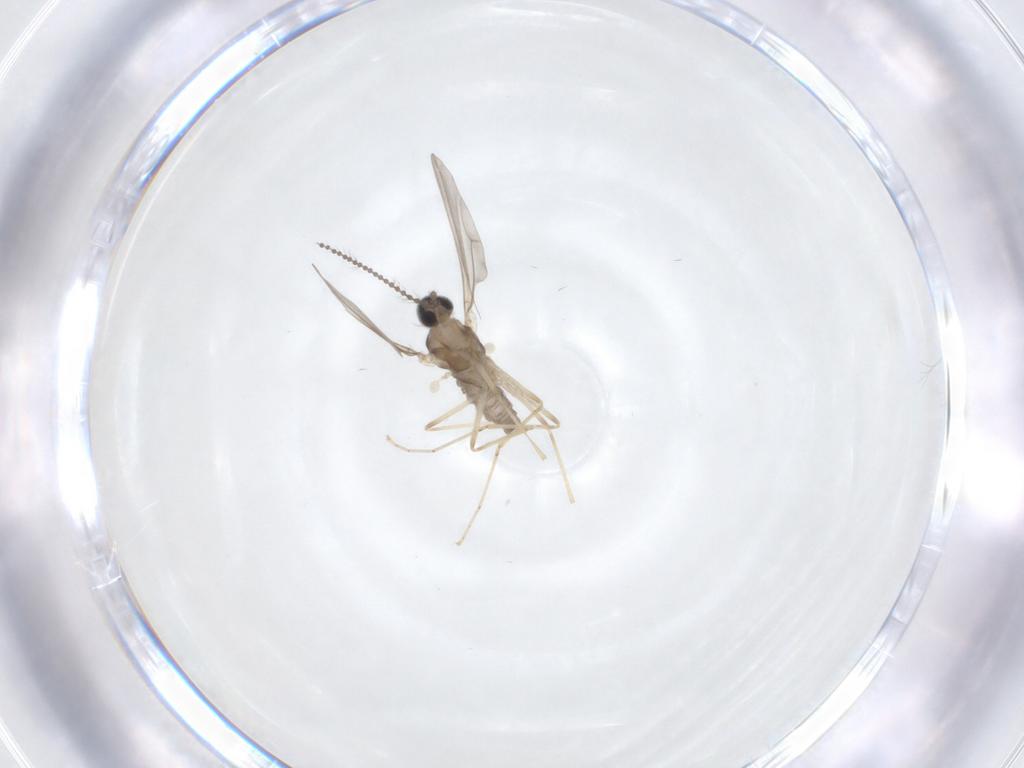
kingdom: Animalia
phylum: Arthropoda
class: Insecta
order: Diptera
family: Cecidomyiidae
